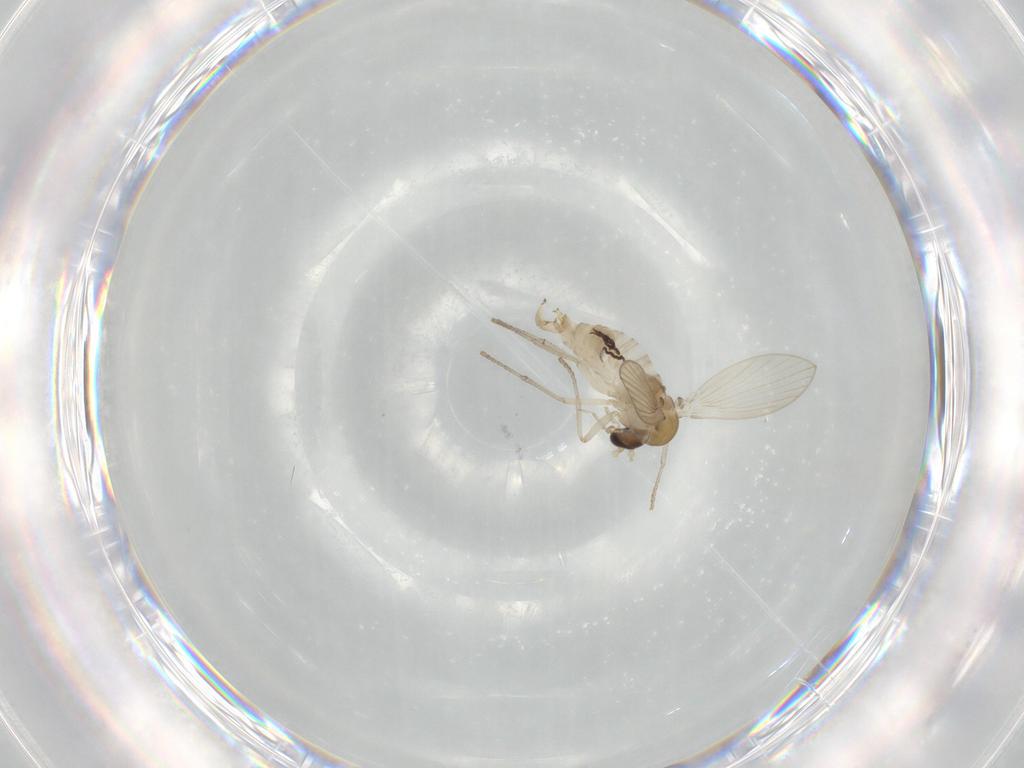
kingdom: Animalia
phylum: Arthropoda
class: Insecta
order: Diptera
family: Psychodidae
